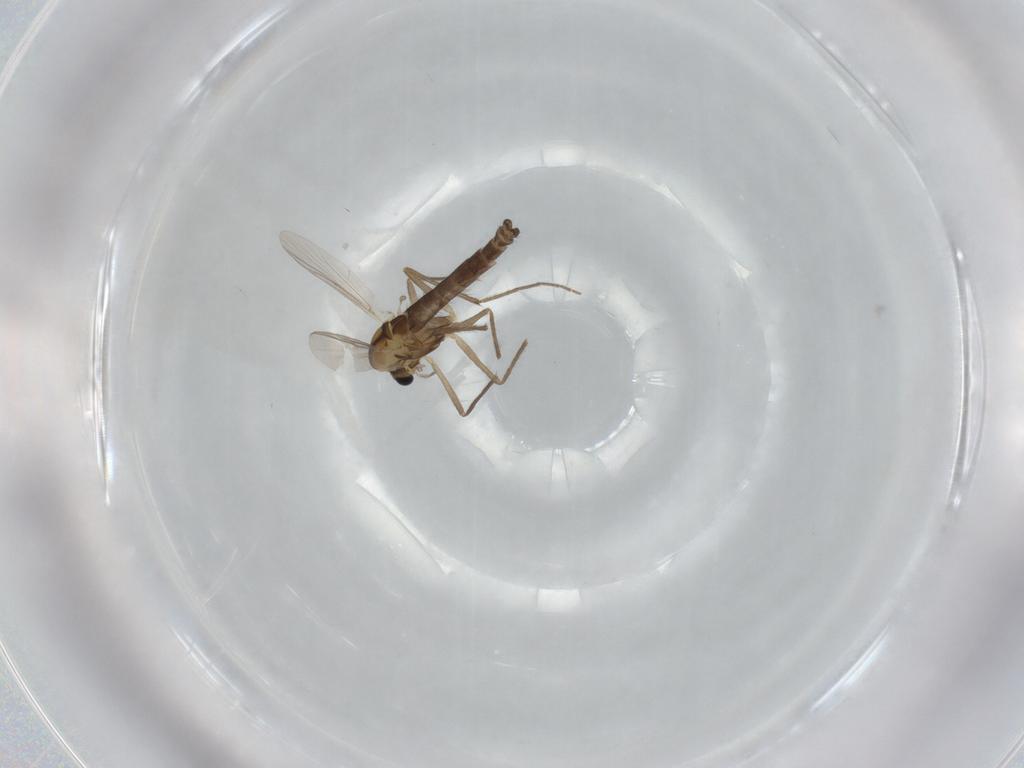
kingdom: Animalia
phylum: Arthropoda
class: Insecta
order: Diptera
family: Chironomidae
